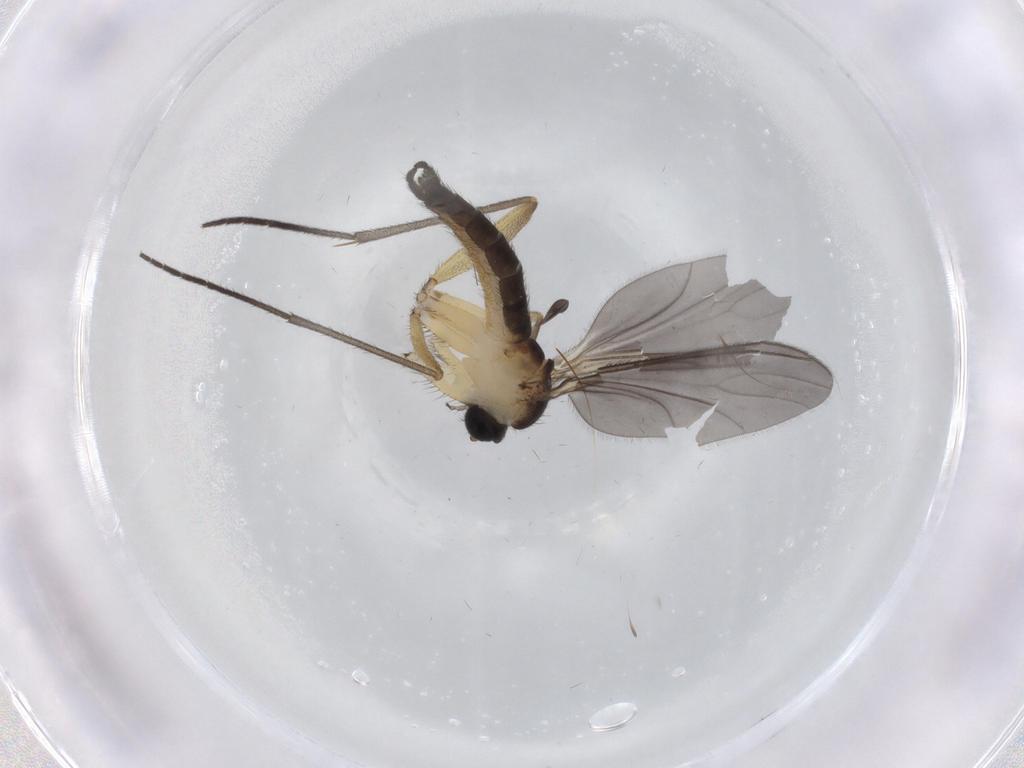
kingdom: Animalia
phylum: Arthropoda
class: Insecta
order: Diptera
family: Sciaridae
